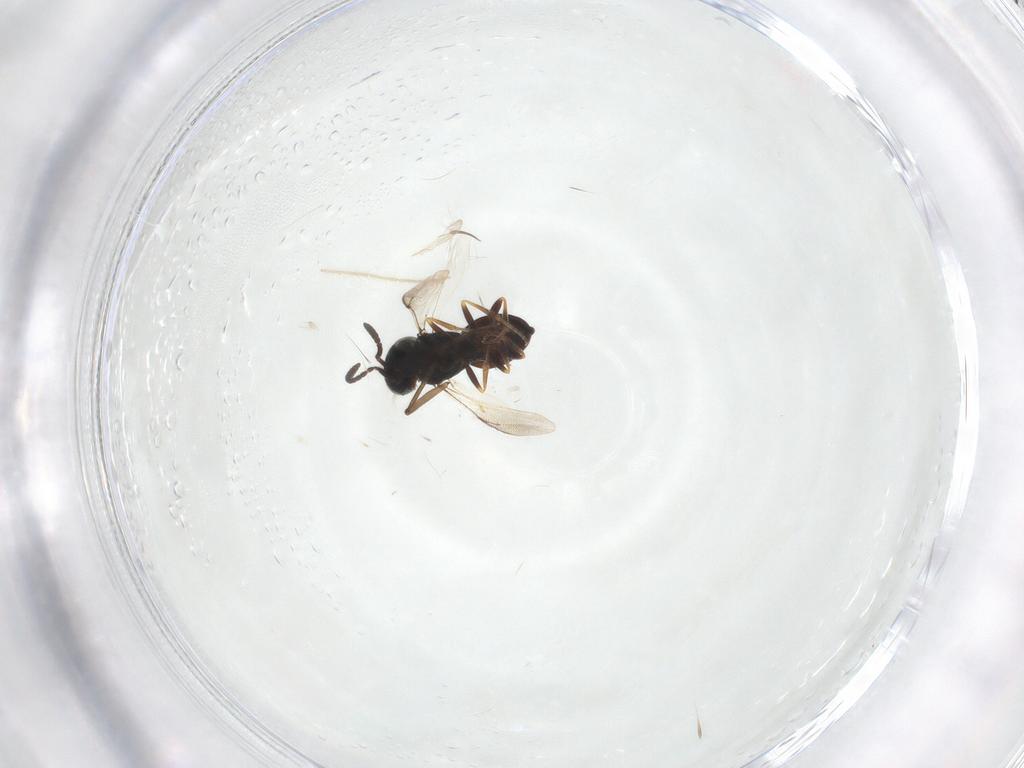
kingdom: Animalia
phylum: Arthropoda
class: Insecta
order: Hymenoptera
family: Scelionidae
